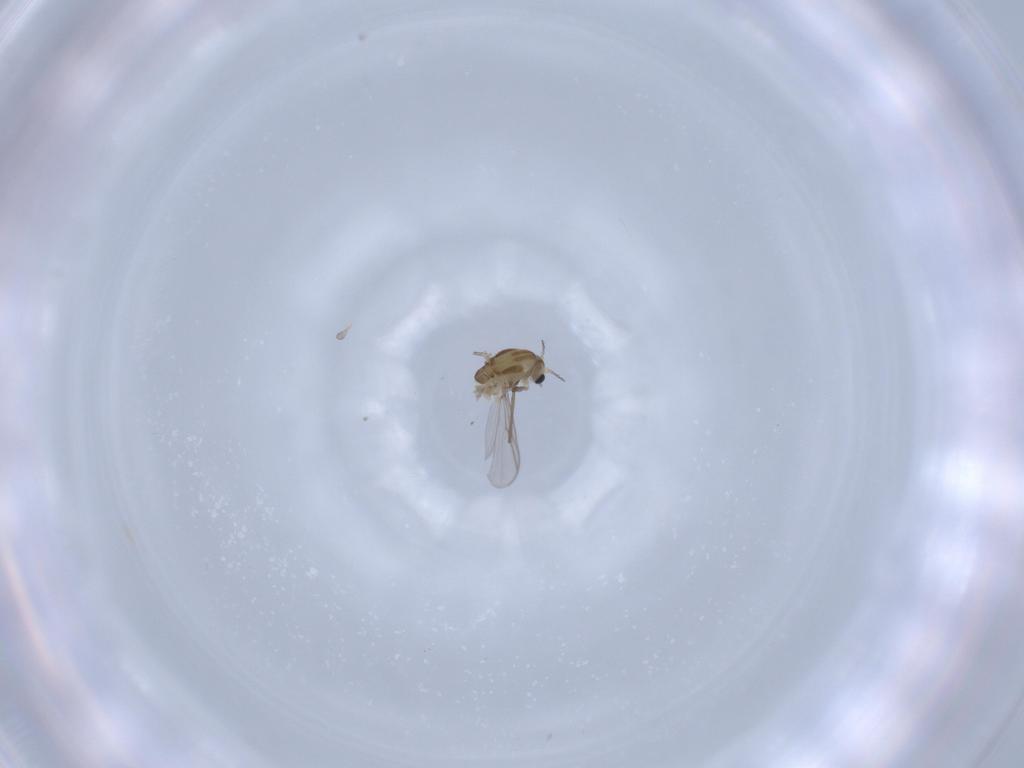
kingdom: Animalia
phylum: Arthropoda
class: Insecta
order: Diptera
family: Chironomidae
